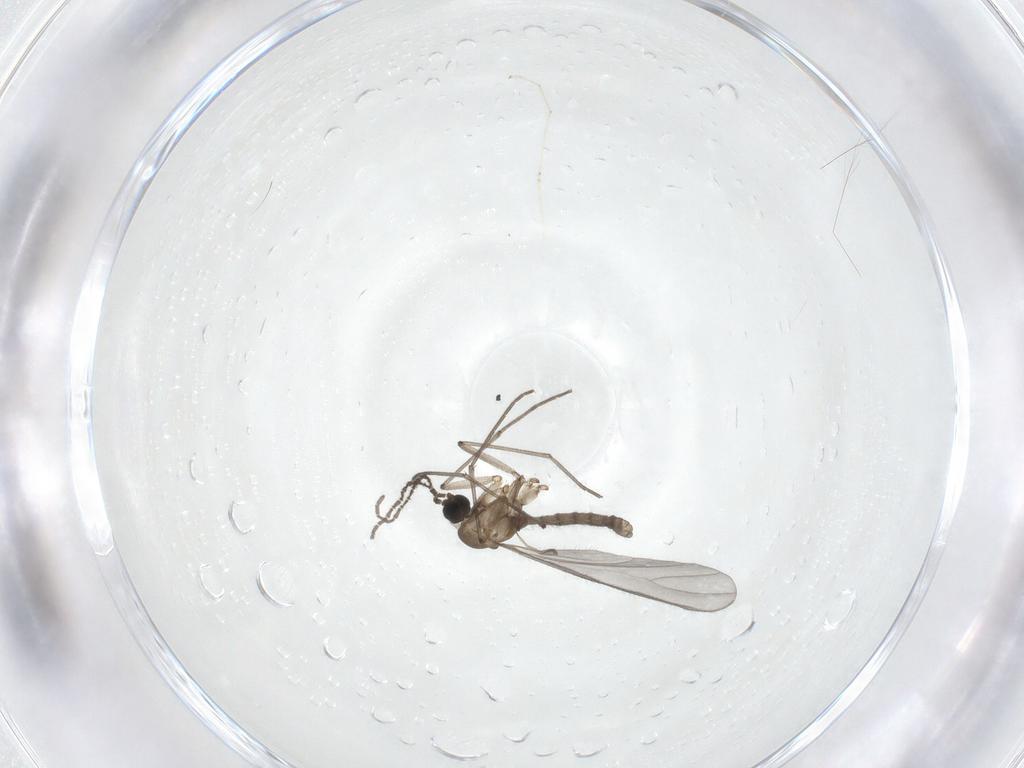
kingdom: Animalia
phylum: Arthropoda
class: Insecta
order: Diptera
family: Sciaridae
